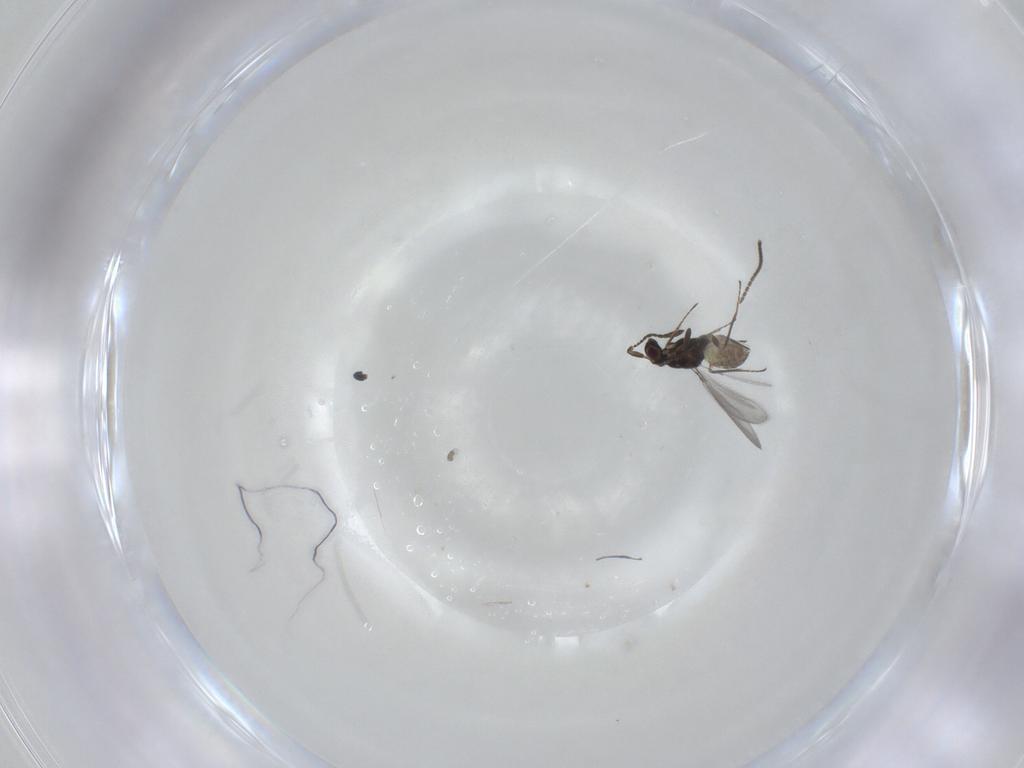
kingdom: Animalia
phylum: Arthropoda
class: Insecta
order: Hymenoptera
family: Mymaridae
